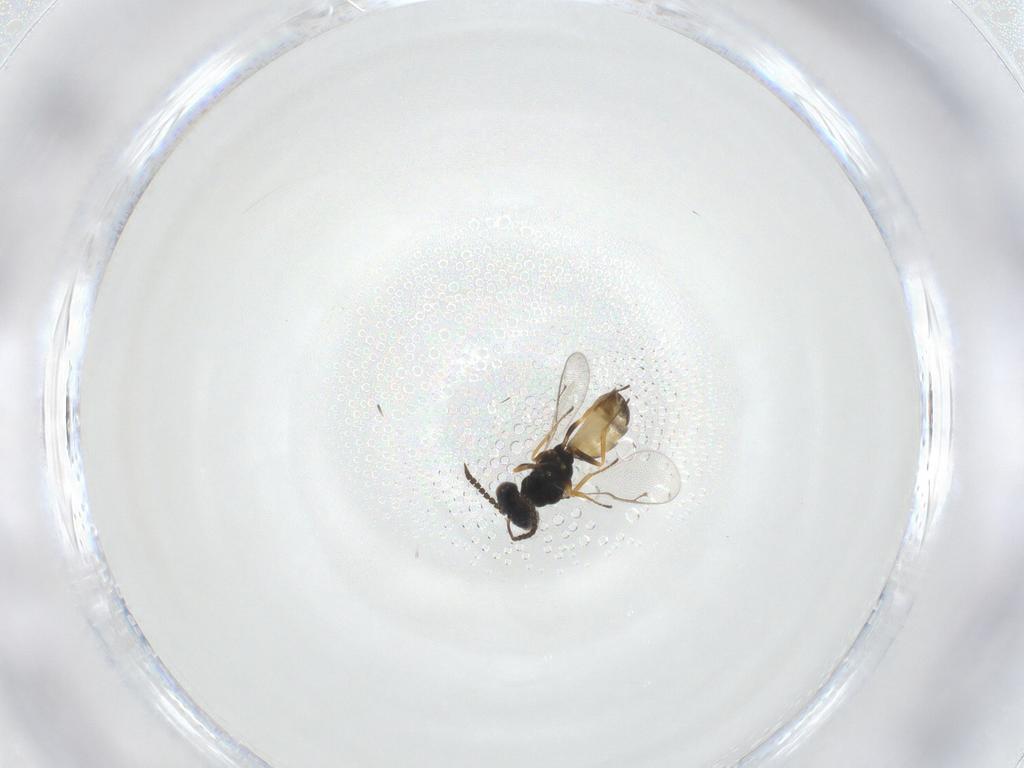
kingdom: Animalia
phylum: Arthropoda
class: Insecta
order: Hymenoptera
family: Pteromalidae
